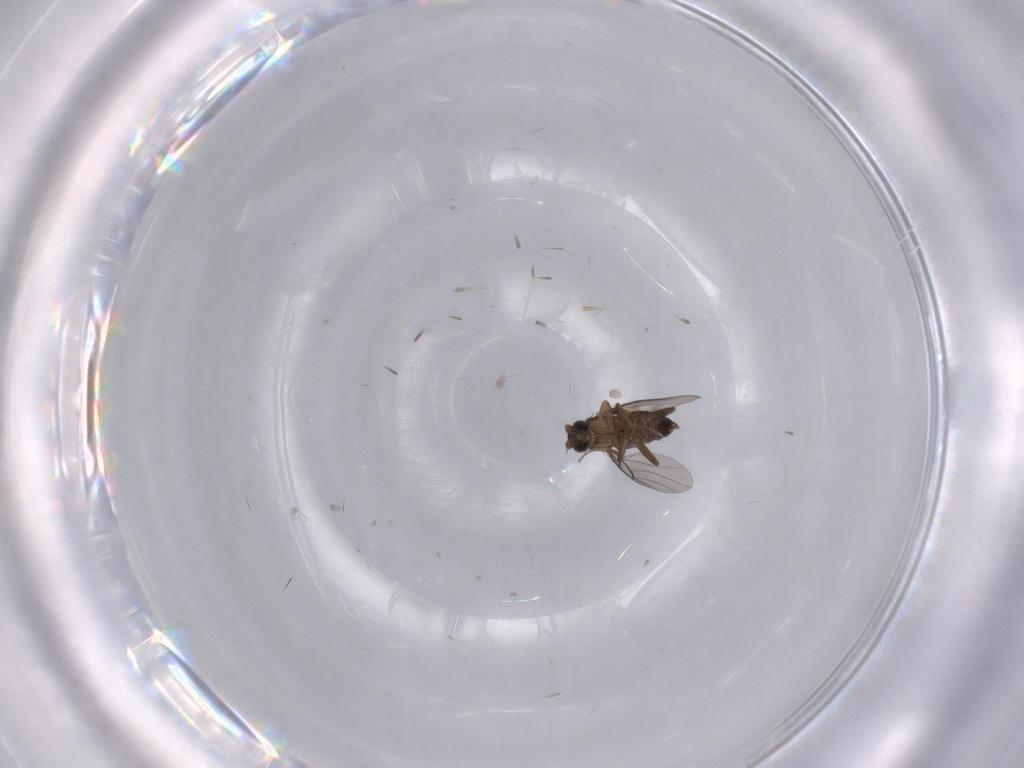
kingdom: Animalia
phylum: Arthropoda
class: Insecta
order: Diptera
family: Phoridae
